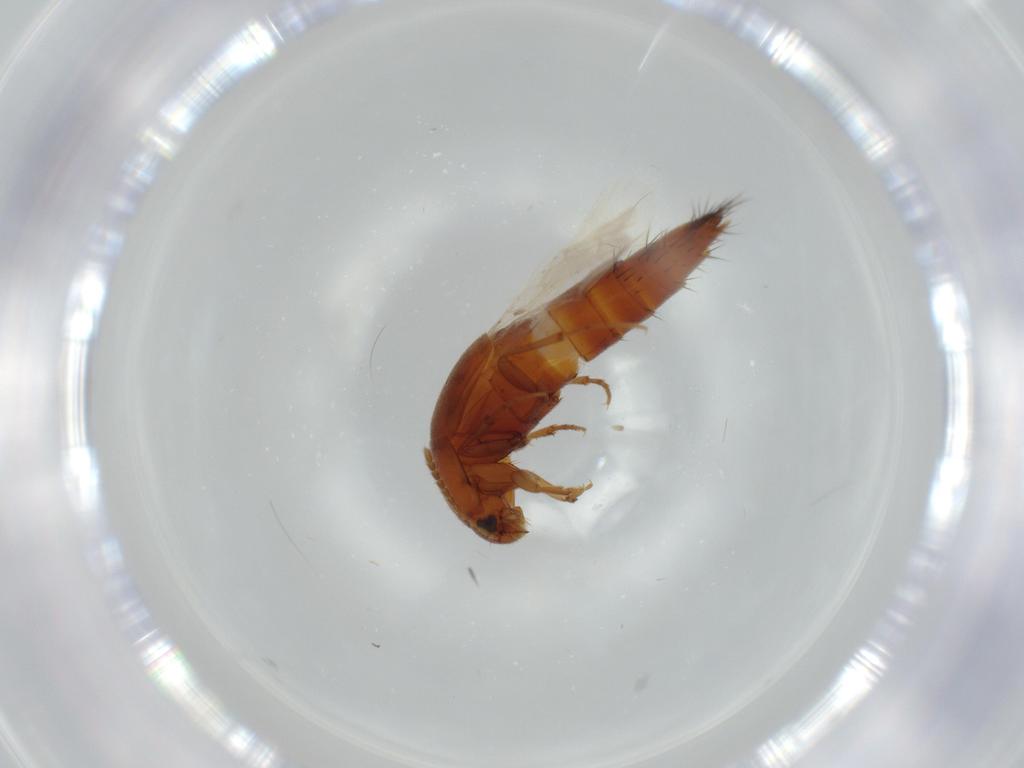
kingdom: Animalia
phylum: Arthropoda
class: Insecta
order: Coleoptera
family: Staphylinidae
